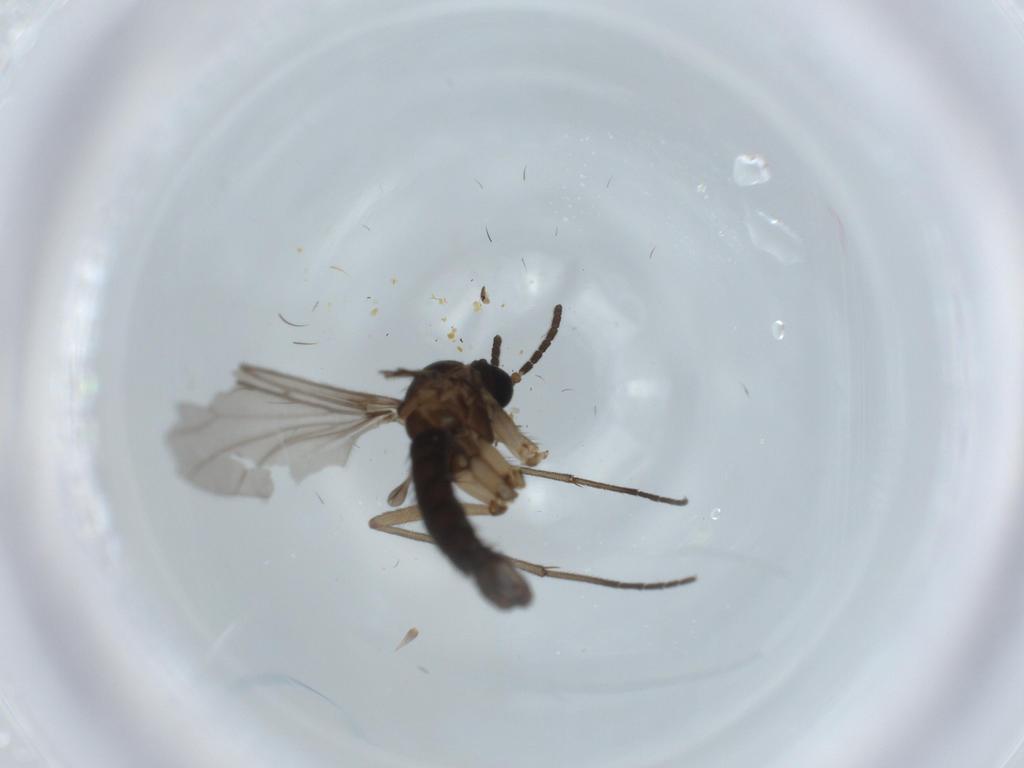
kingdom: Animalia
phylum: Arthropoda
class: Insecta
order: Diptera
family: Sciaridae
